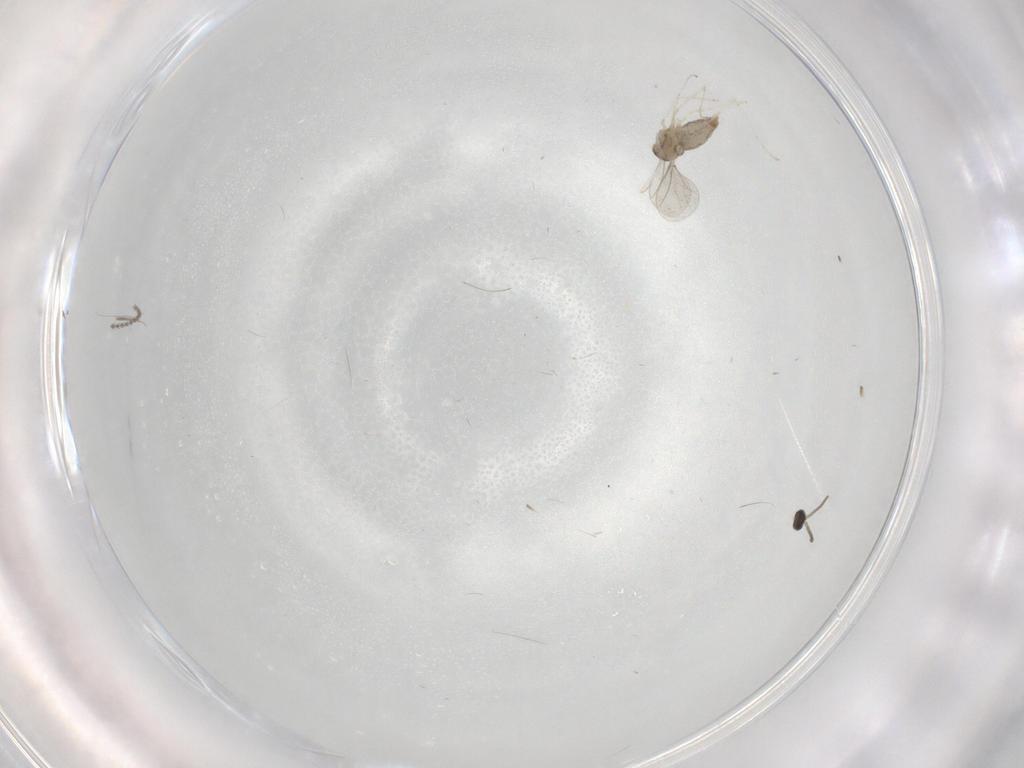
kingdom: Animalia
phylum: Arthropoda
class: Insecta
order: Diptera
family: Cecidomyiidae
